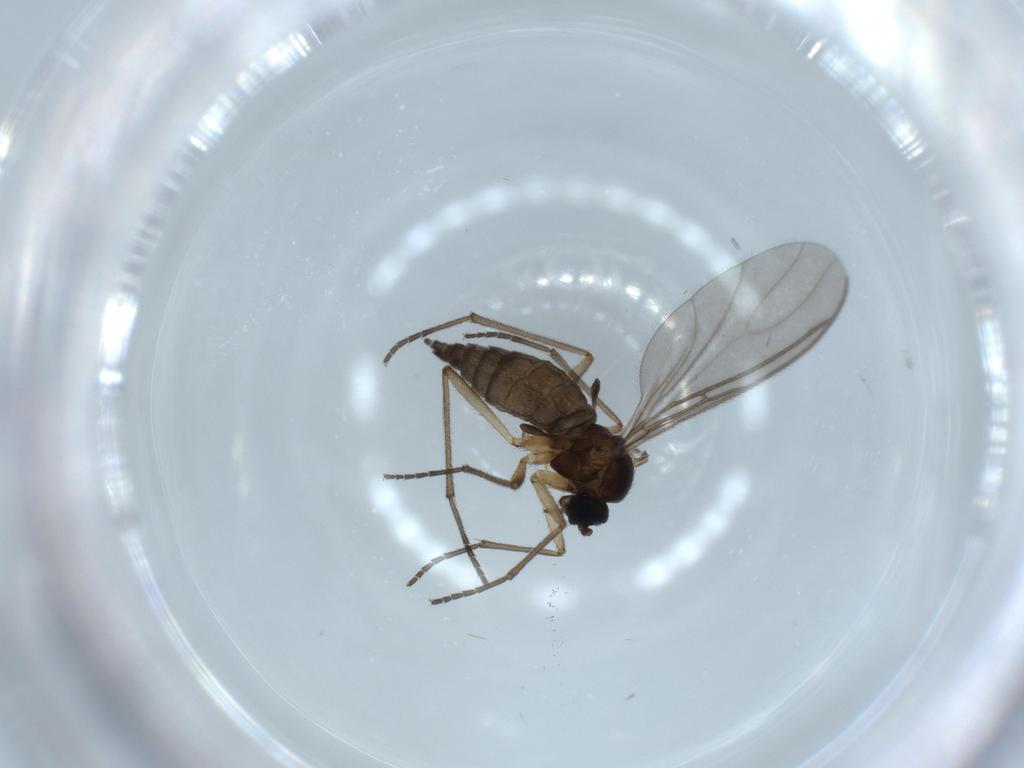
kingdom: Animalia
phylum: Arthropoda
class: Insecta
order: Diptera
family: Sciaridae
